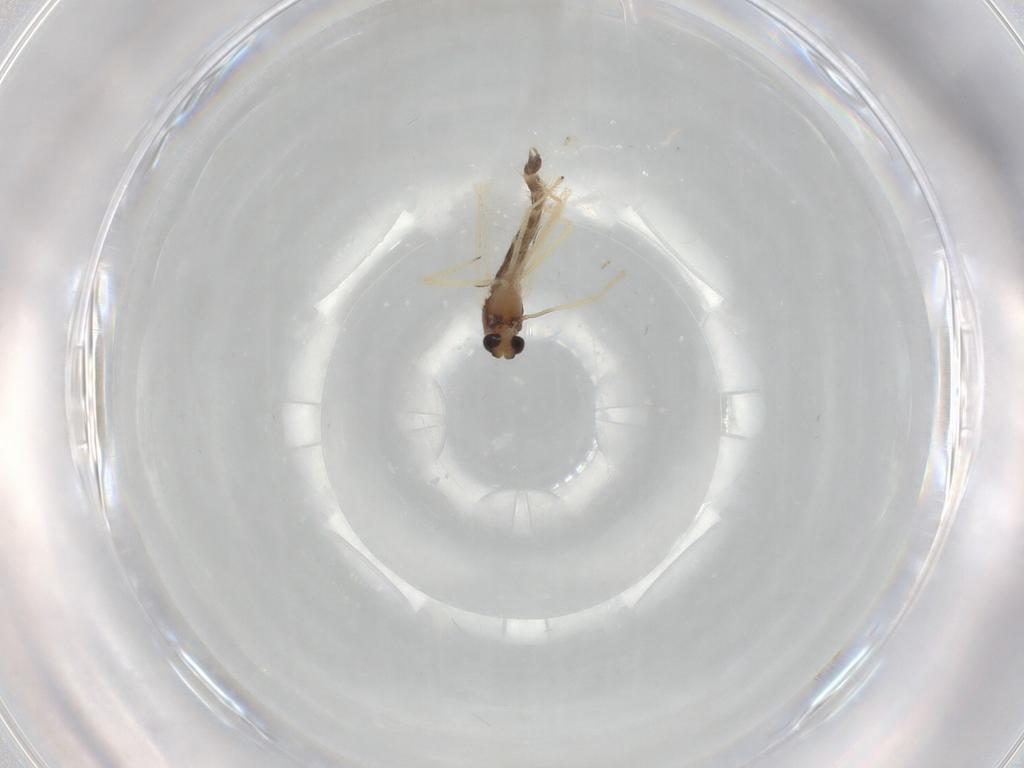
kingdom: Animalia
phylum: Arthropoda
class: Insecta
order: Diptera
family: Chironomidae
